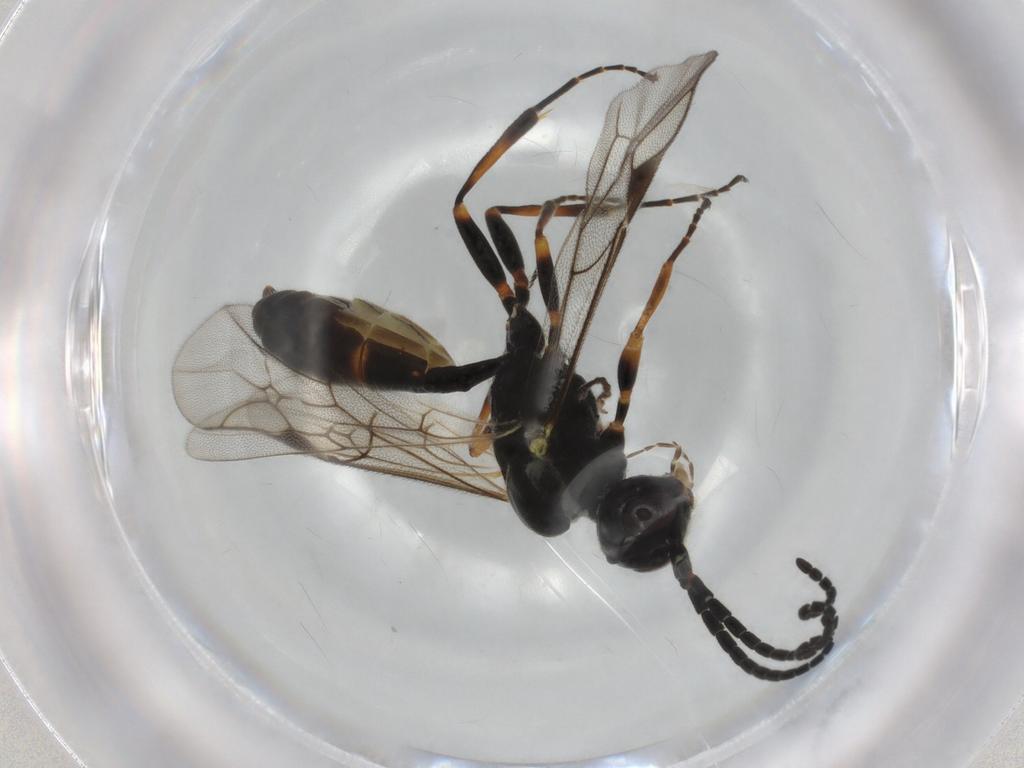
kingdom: Animalia
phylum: Arthropoda
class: Insecta
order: Hymenoptera
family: Ichneumonidae
